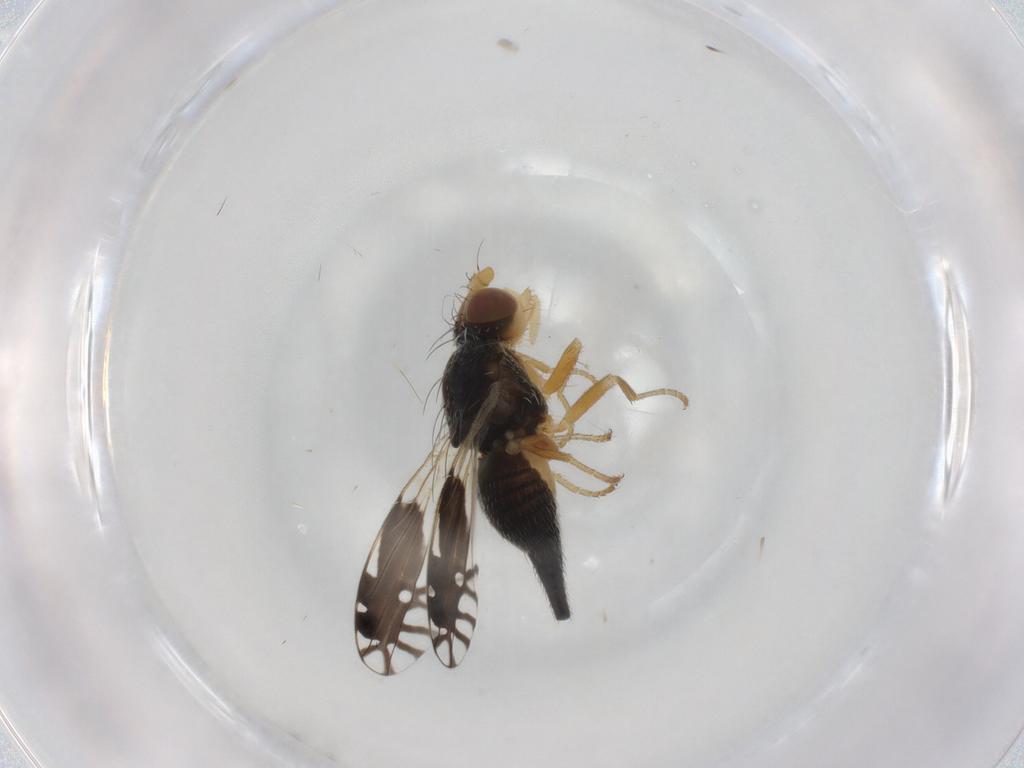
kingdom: Animalia
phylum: Arthropoda
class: Insecta
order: Diptera
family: Tephritidae
